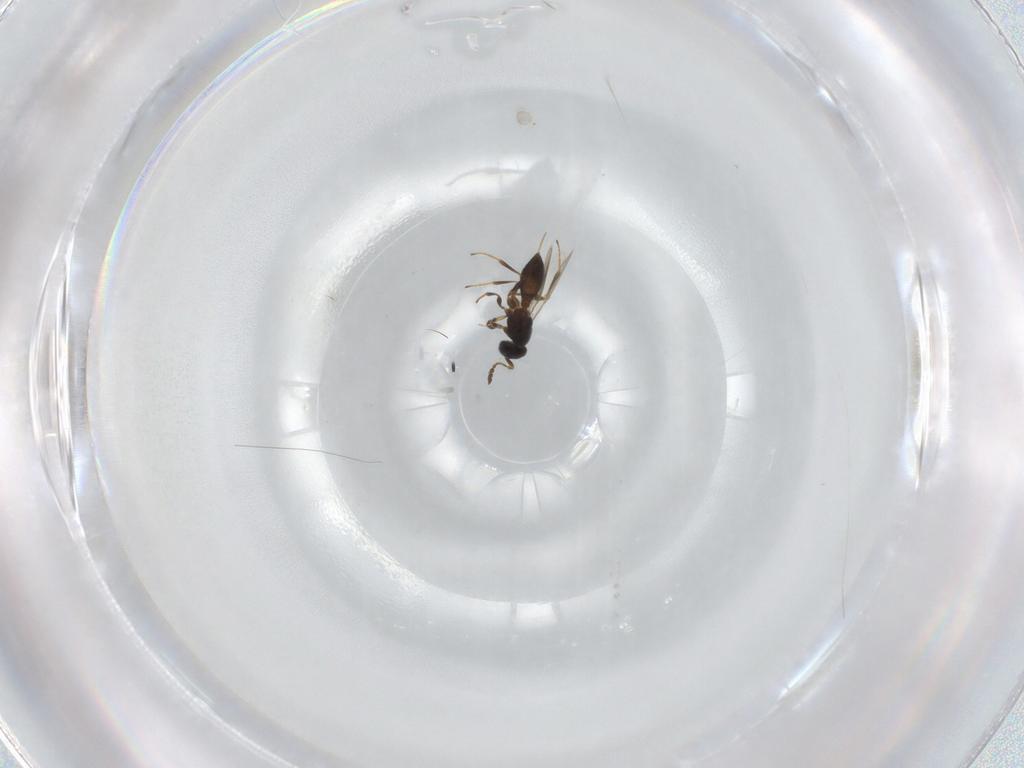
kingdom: Animalia
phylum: Arthropoda
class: Insecta
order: Hymenoptera
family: Platygastridae
